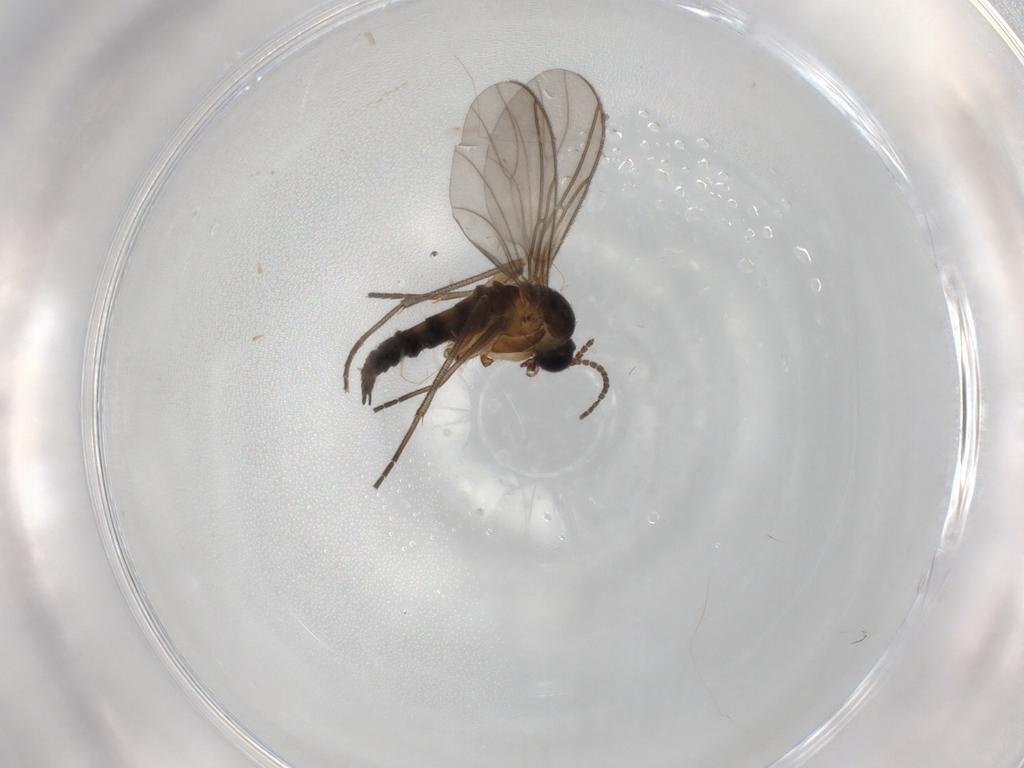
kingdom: Animalia
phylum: Arthropoda
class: Insecta
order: Diptera
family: Sciaridae
